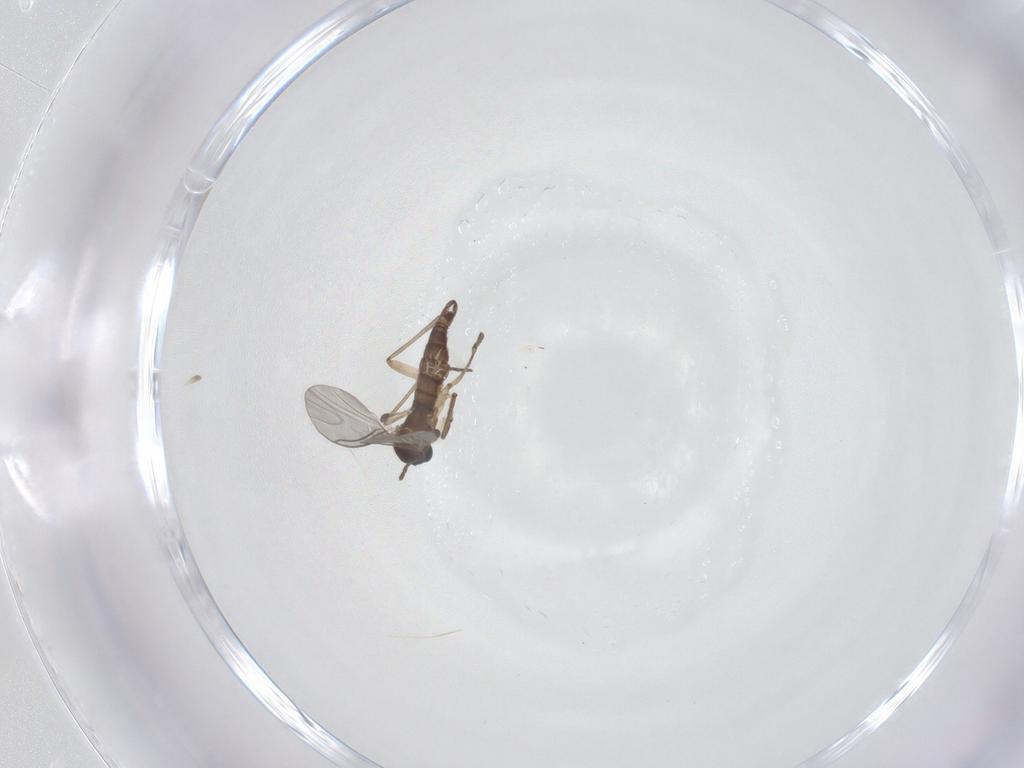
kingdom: Animalia
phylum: Arthropoda
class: Insecta
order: Diptera
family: Sciaridae
